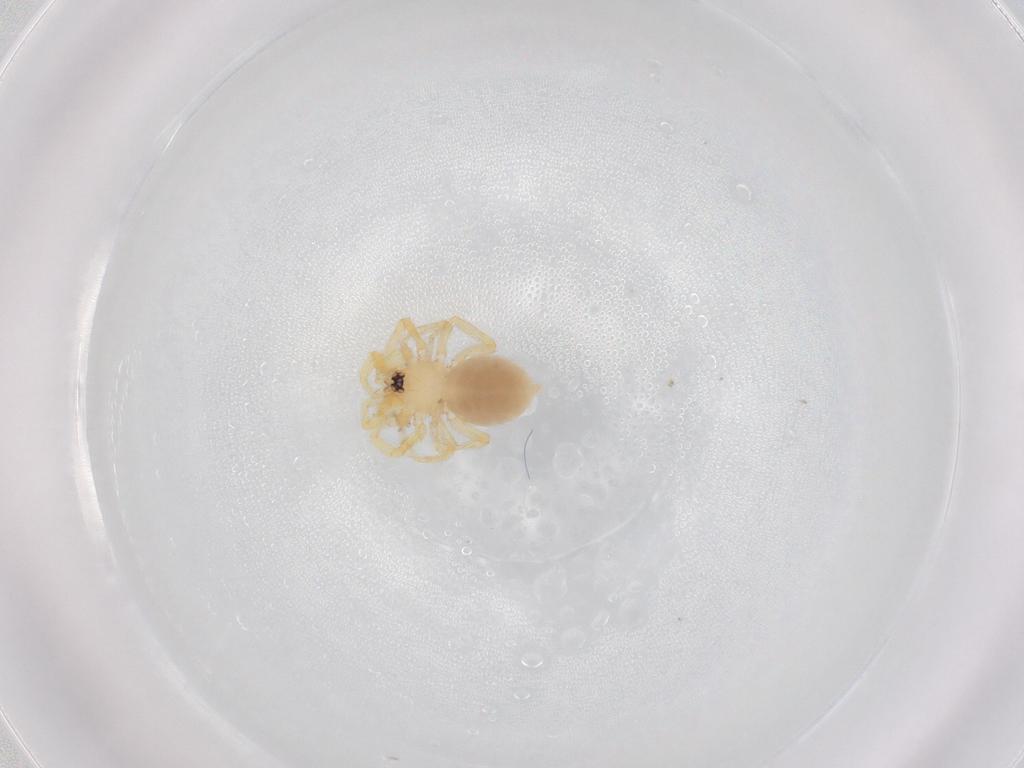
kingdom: Animalia
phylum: Arthropoda
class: Arachnida
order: Araneae
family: Oonopidae
